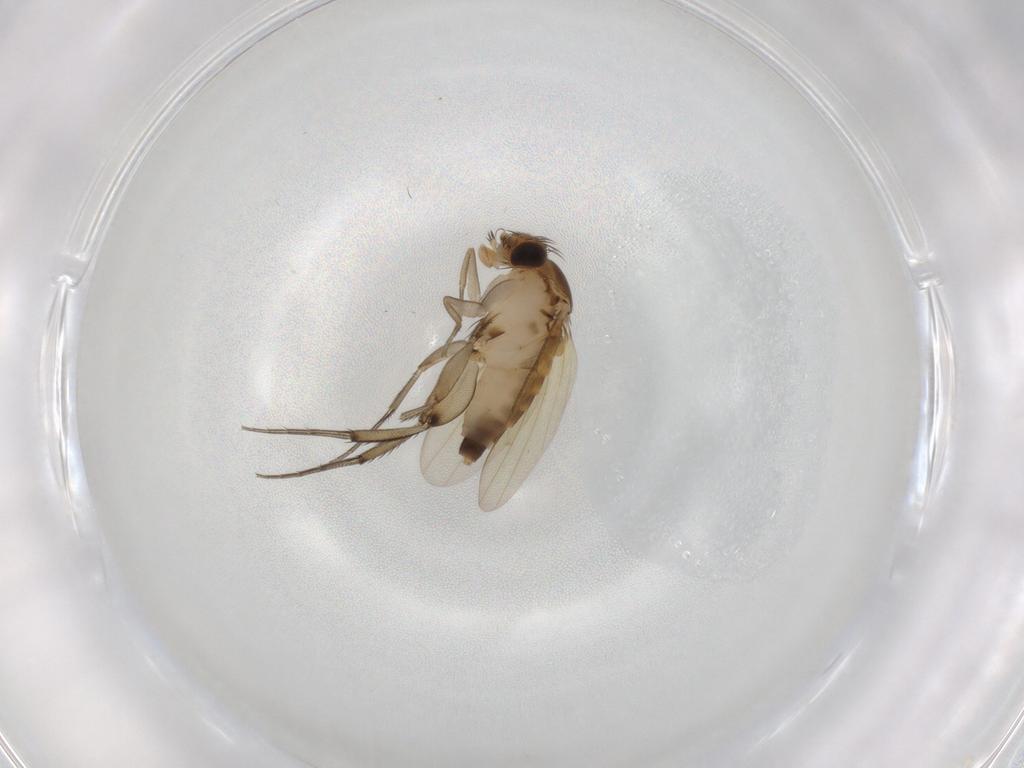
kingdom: Animalia
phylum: Arthropoda
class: Insecta
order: Diptera
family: Phoridae
